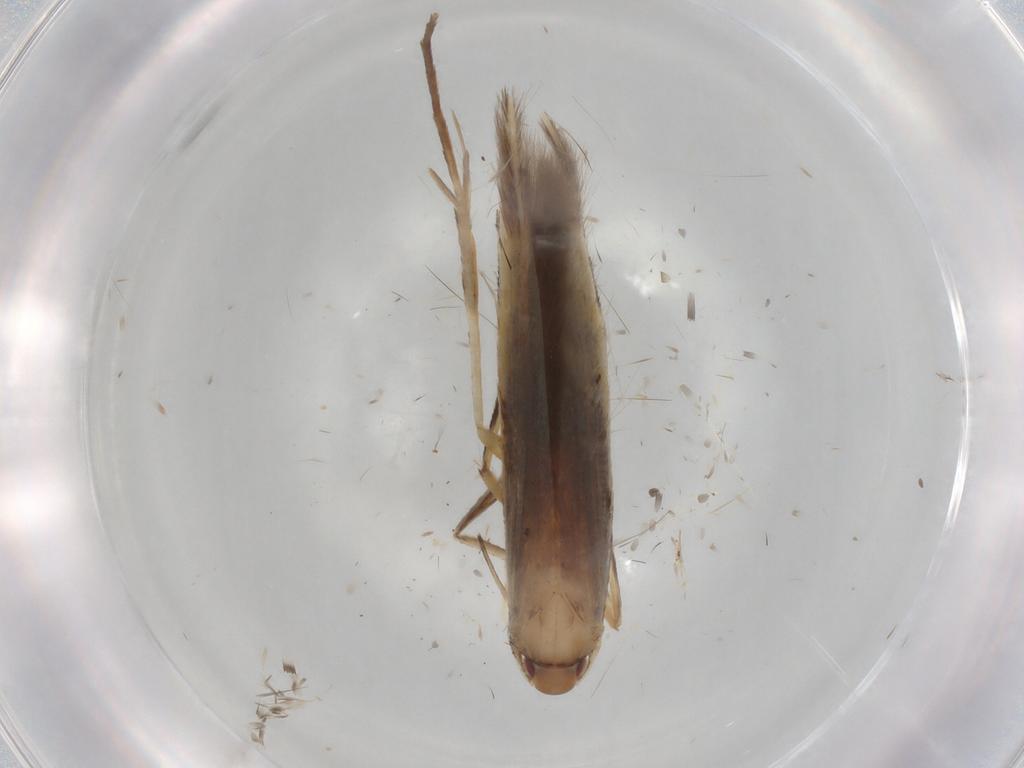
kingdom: Animalia
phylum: Arthropoda
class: Insecta
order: Lepidoptera
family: Cosmopterigidae
